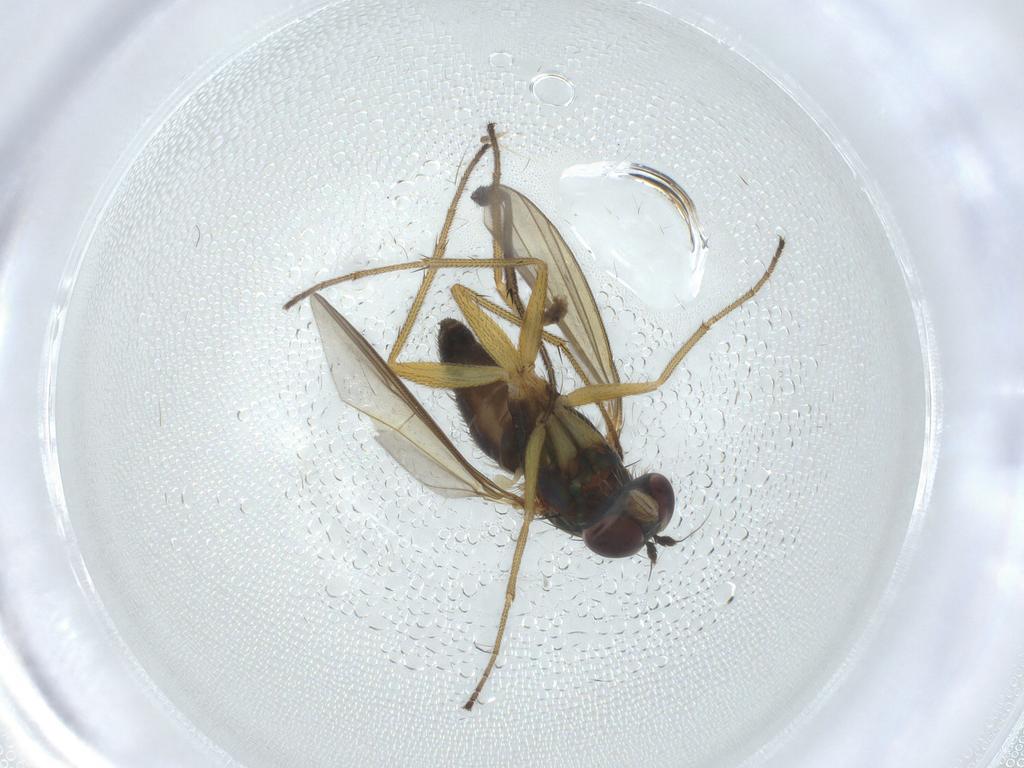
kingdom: Animalia
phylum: Arthropoda
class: Insecta
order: Diptera
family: Dolichopodidae
